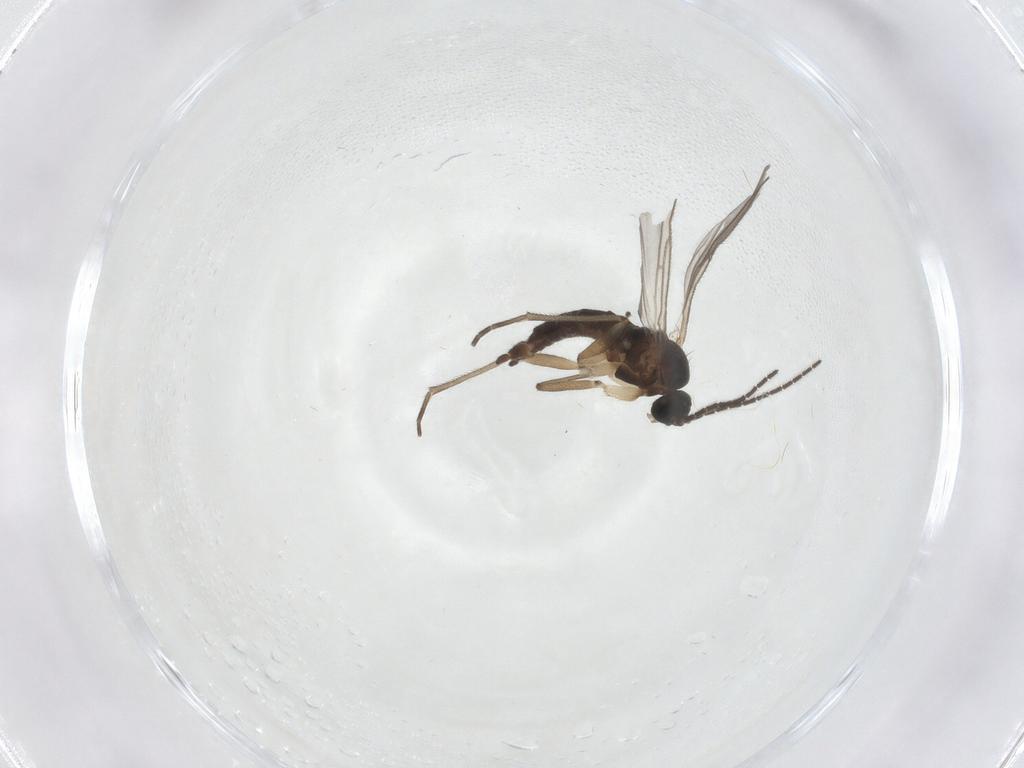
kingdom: Animalia
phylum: Arthropoda
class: Insecta
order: Diptera
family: Sciaridae
